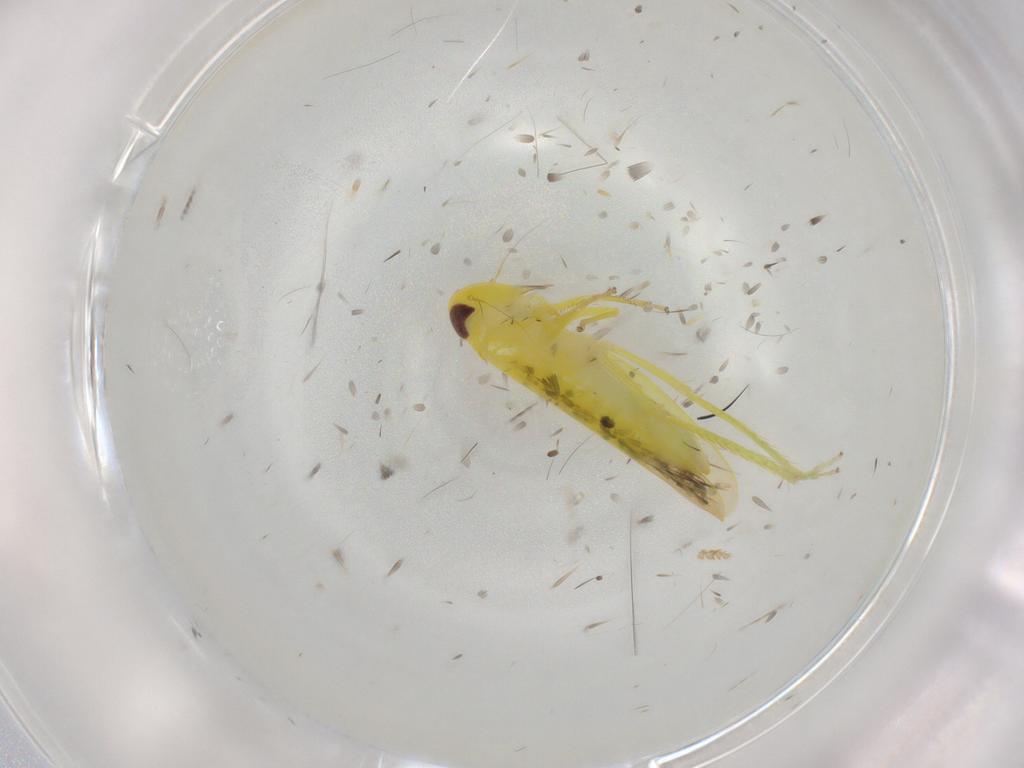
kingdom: Animalia
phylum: Arthropoda
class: Insecta
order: Hemiptera
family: Cicadellidae
